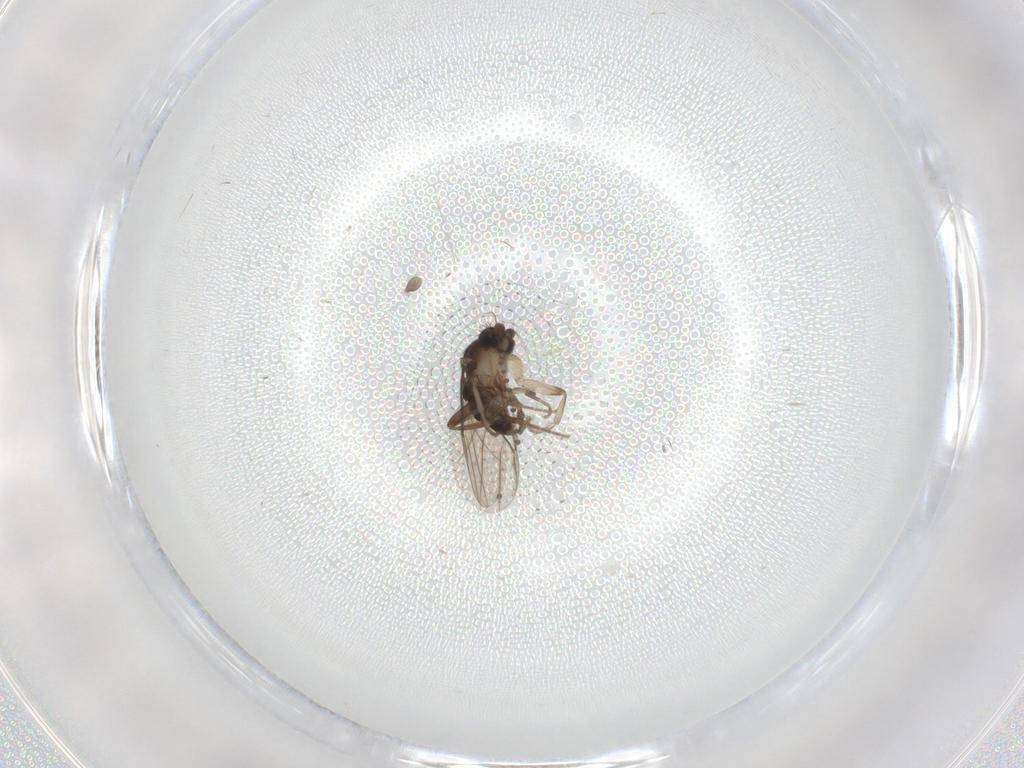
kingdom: Animalia
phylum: Arthropoda
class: Insecta
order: Diptera
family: Sciaridae
